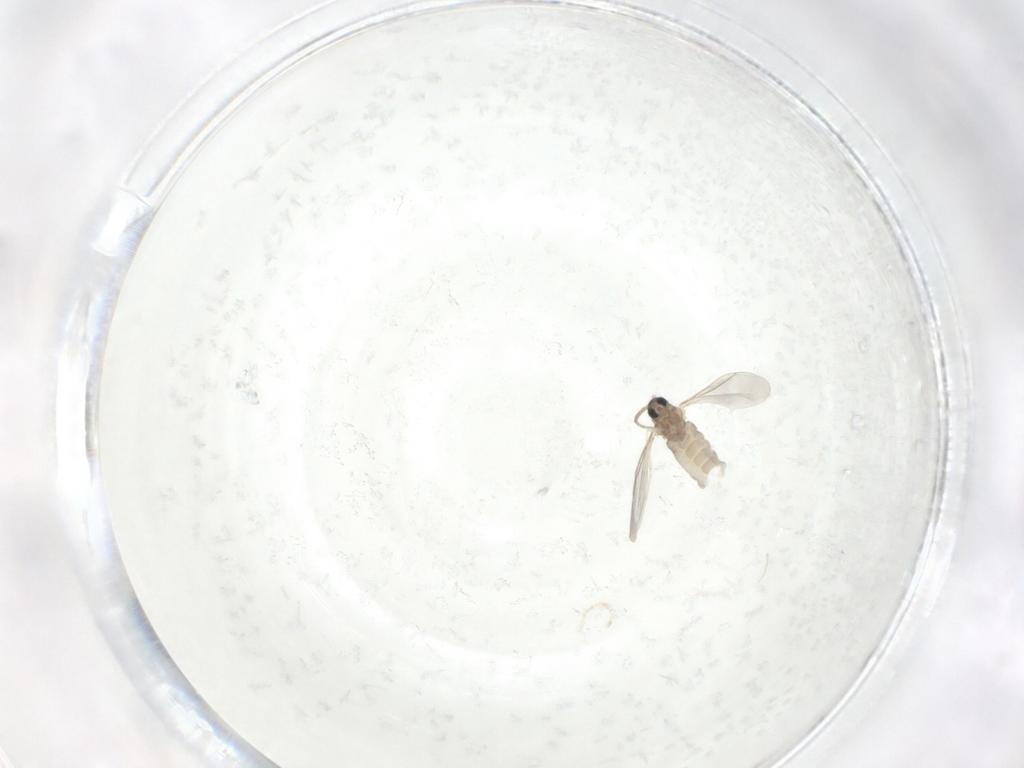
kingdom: Animalia
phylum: Arthropoda
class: Insecta
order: Diptera
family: Cecidomyiidae
